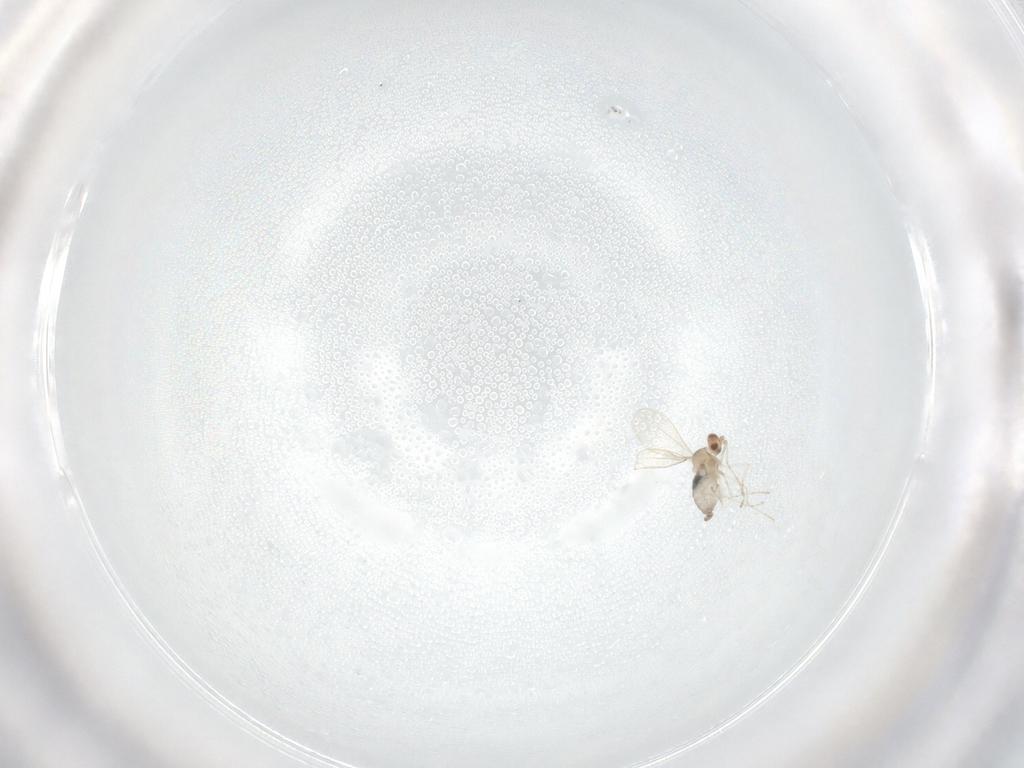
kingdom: Animalia
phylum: Arthropoda
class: Insecta
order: Diptera
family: Cecidomyiidae
